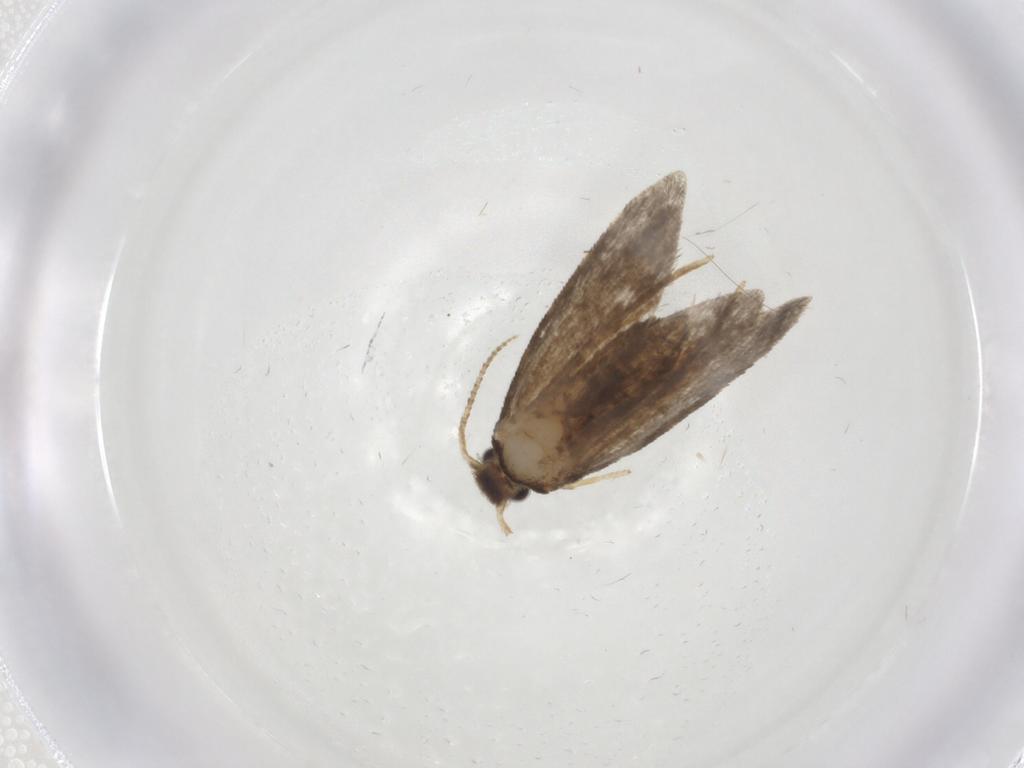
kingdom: Animalia
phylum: Arthropoda
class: Insecta
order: Lepidoptera
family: Psychidae
